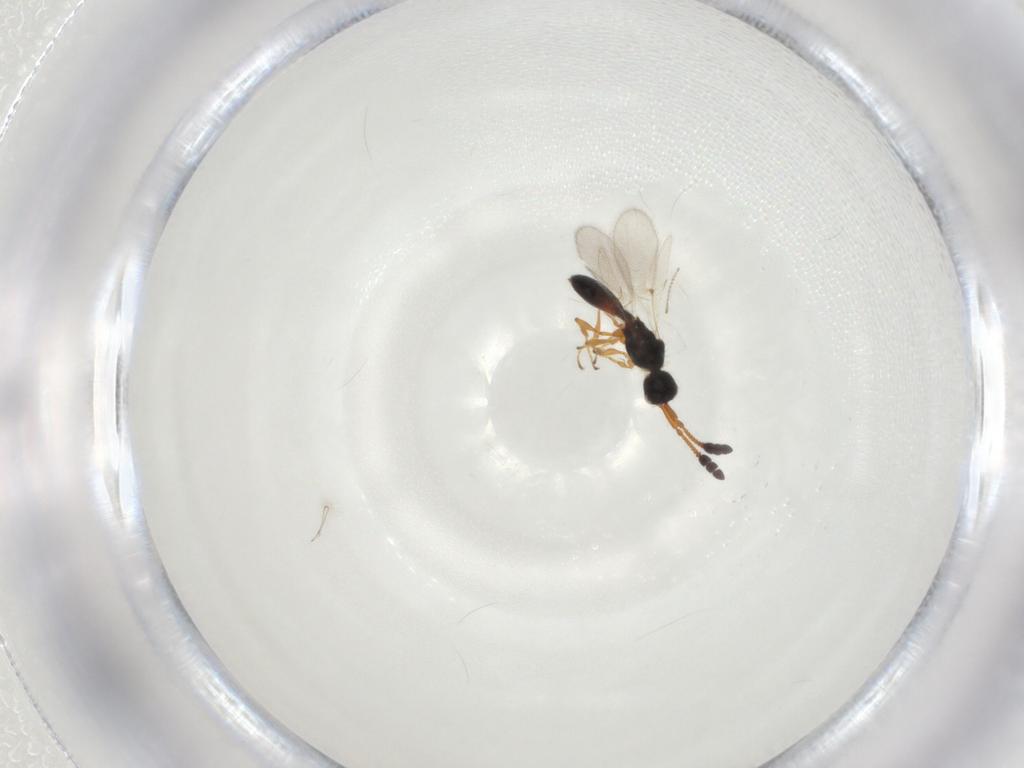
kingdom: Animalia
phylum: Arthropoda
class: Insecta
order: Hymenoptera
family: Diapriidae
